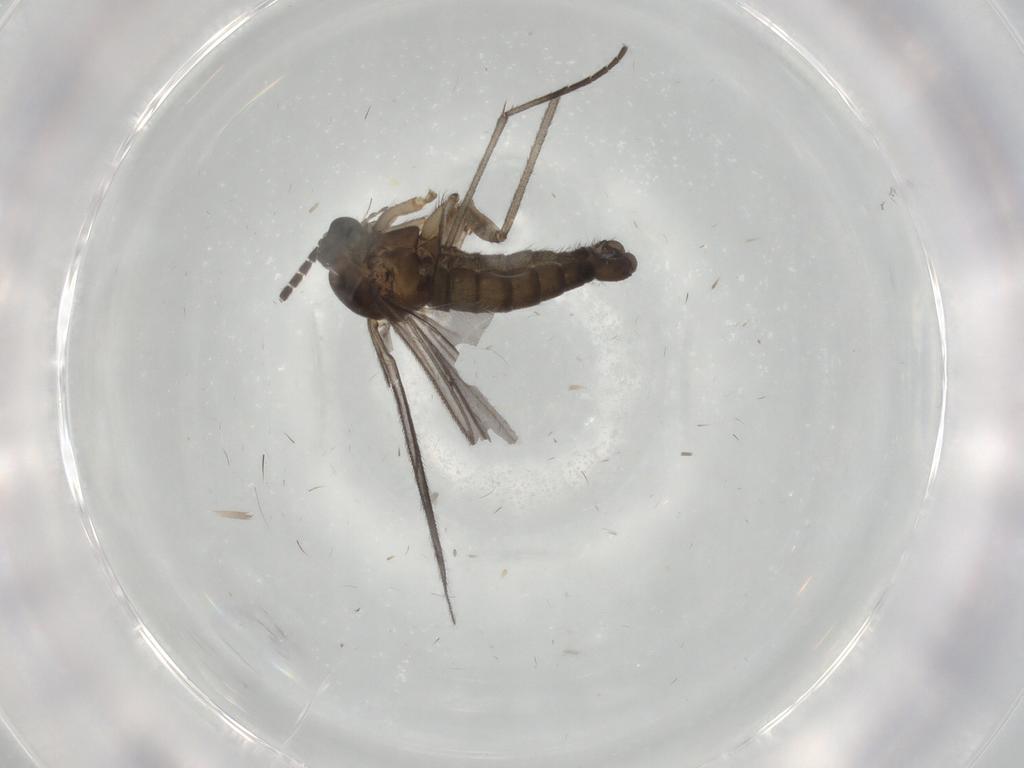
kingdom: Animalia
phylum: Arthropoda
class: Insecta
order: Diptera
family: Sciaridae
